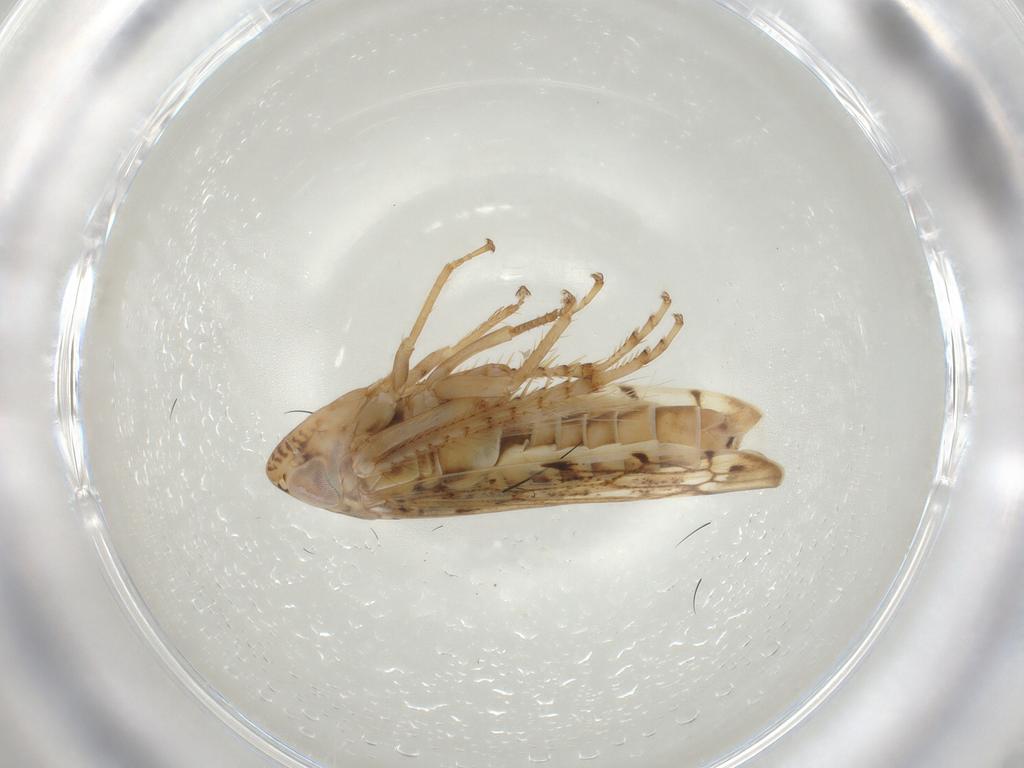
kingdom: Animalia
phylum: Arthropoda
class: Insecta
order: Hemiptera
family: Cicadellidae
